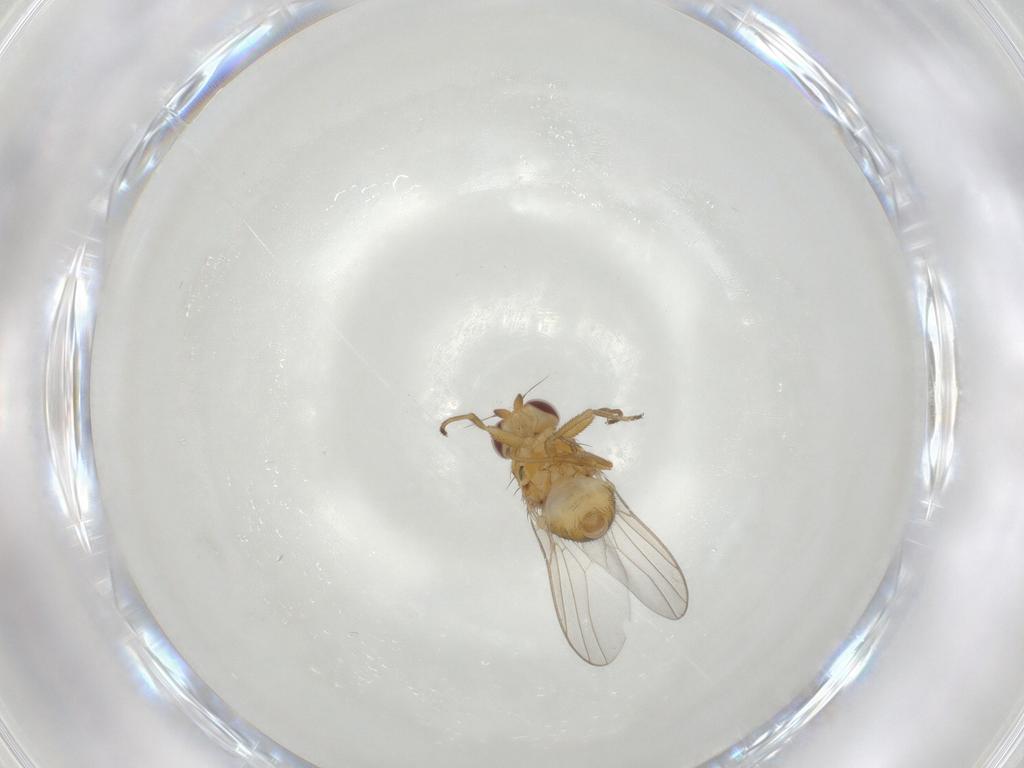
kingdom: Animalia
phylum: Arthropoda
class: Insecta
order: Diptera
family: Chloropidae
